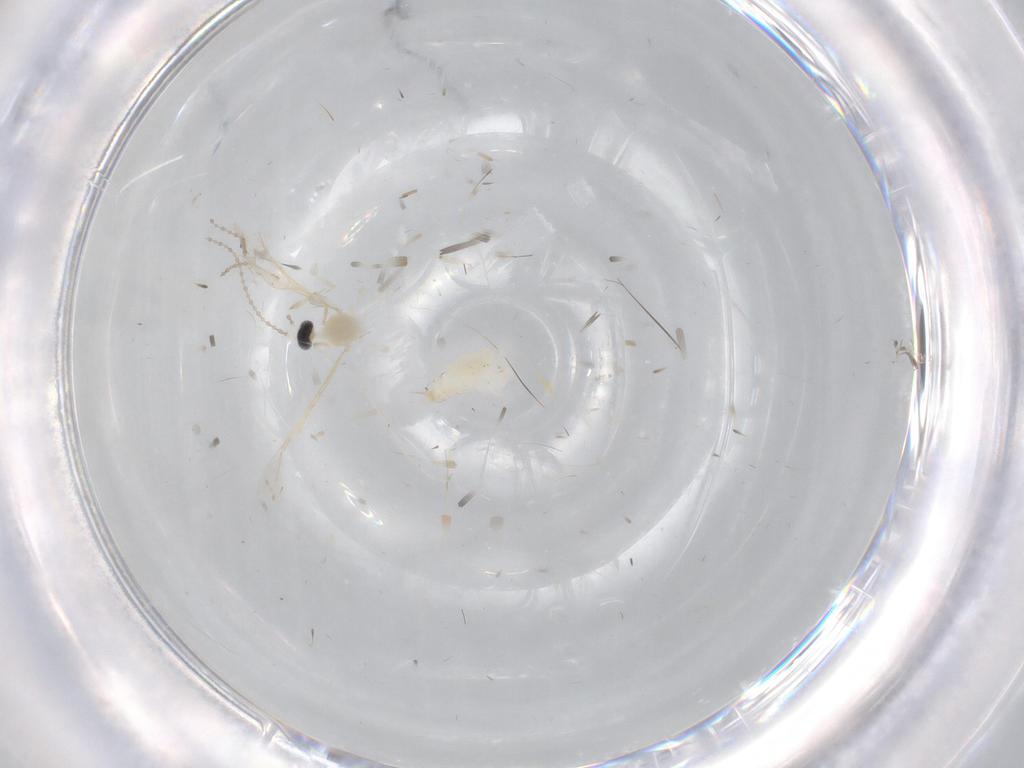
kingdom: Animalia
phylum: Arthropoda
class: Insecta
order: Diptera
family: Cecidomyiidae
